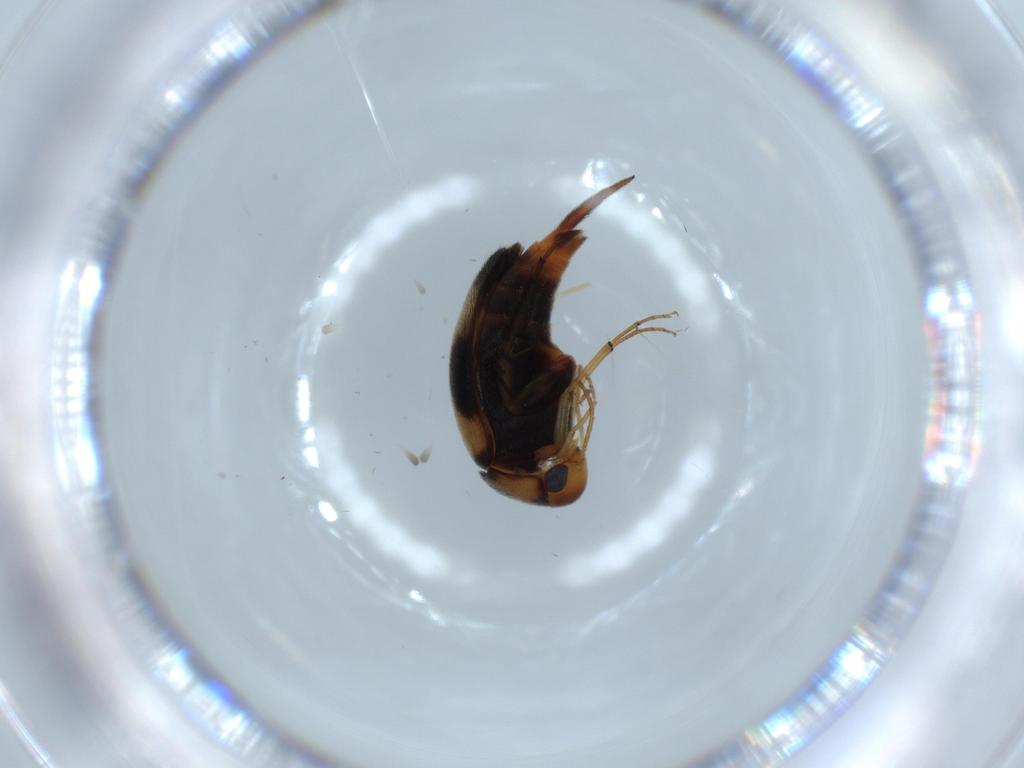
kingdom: Animalia
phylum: Arthropoda
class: Insecta
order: Coleoptera
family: Mordellidae
